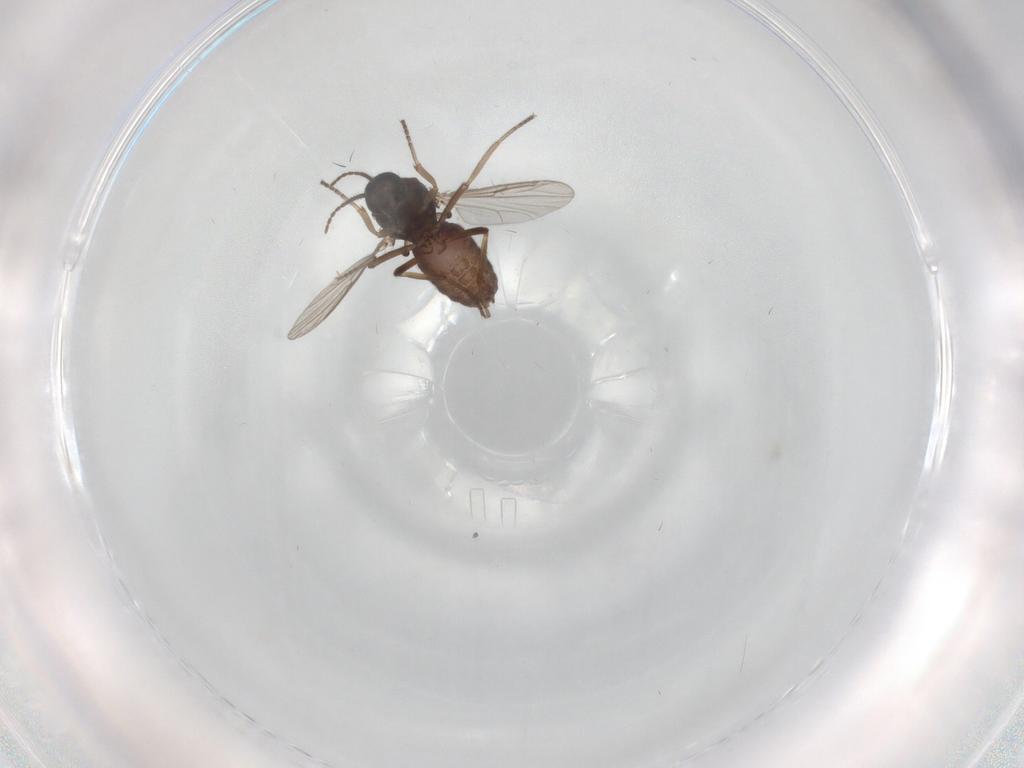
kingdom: Animalia
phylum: Arthropoda
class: Insecta
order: Diptera
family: Ceratopogonidae
